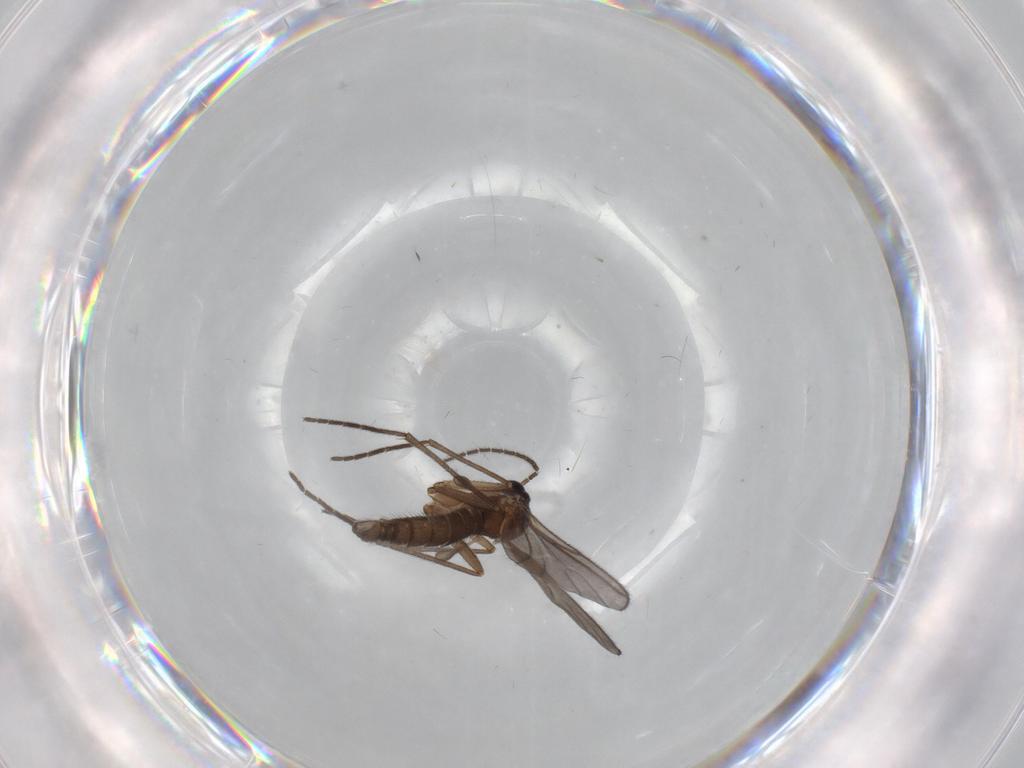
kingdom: Animalia
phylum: Arthropoda
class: Insecta
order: Diptera
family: Sciaridae
